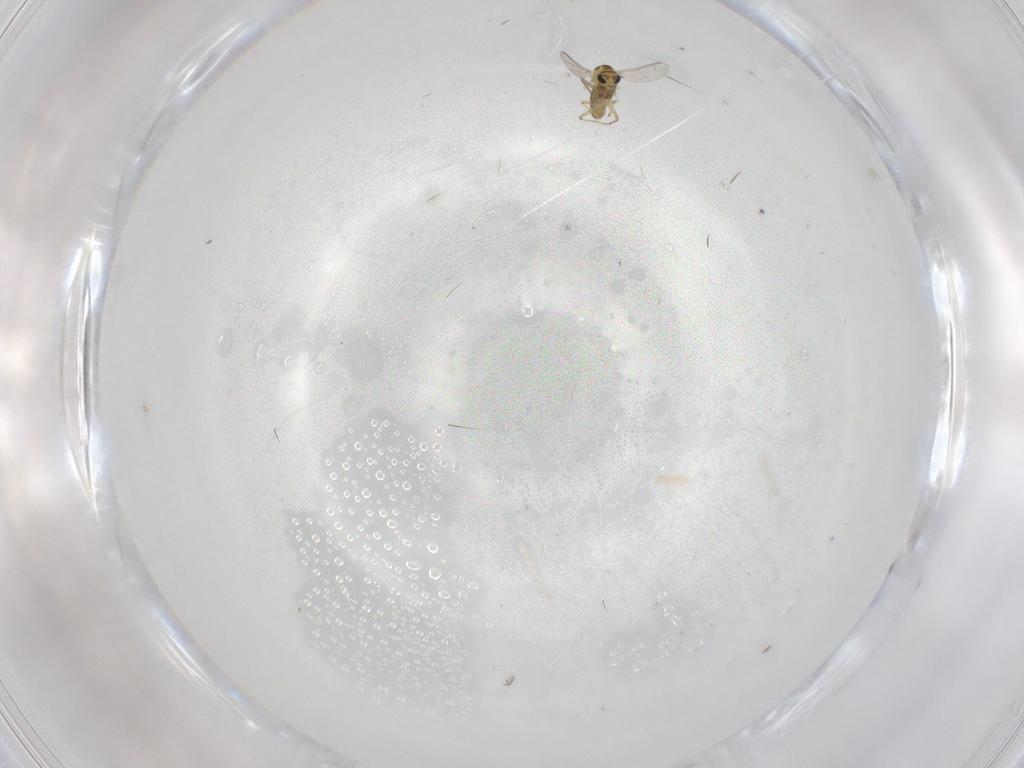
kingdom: Animalia
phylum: Arthropoda
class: Insecta
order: Diptera
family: Chironomidae
